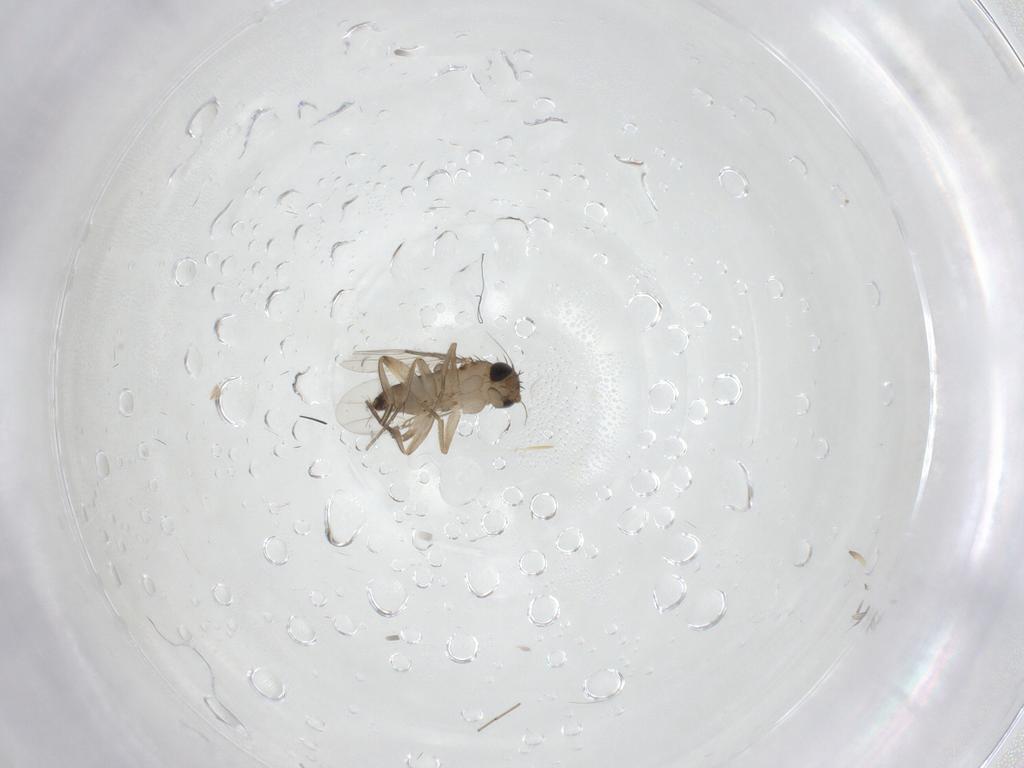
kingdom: Animalia
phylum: Arthropoda
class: Insecta
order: Diptera
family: Phoridae
